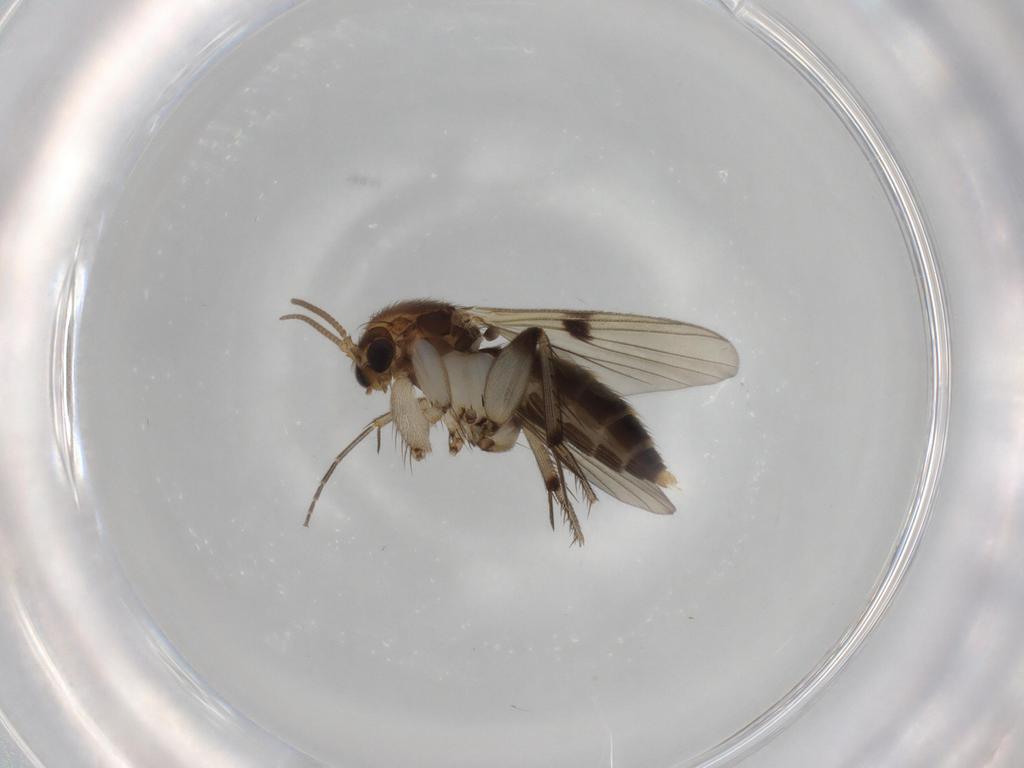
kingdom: Animalia
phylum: Arthropoda
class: Insecta
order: Diptera
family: Mycetophilidae
